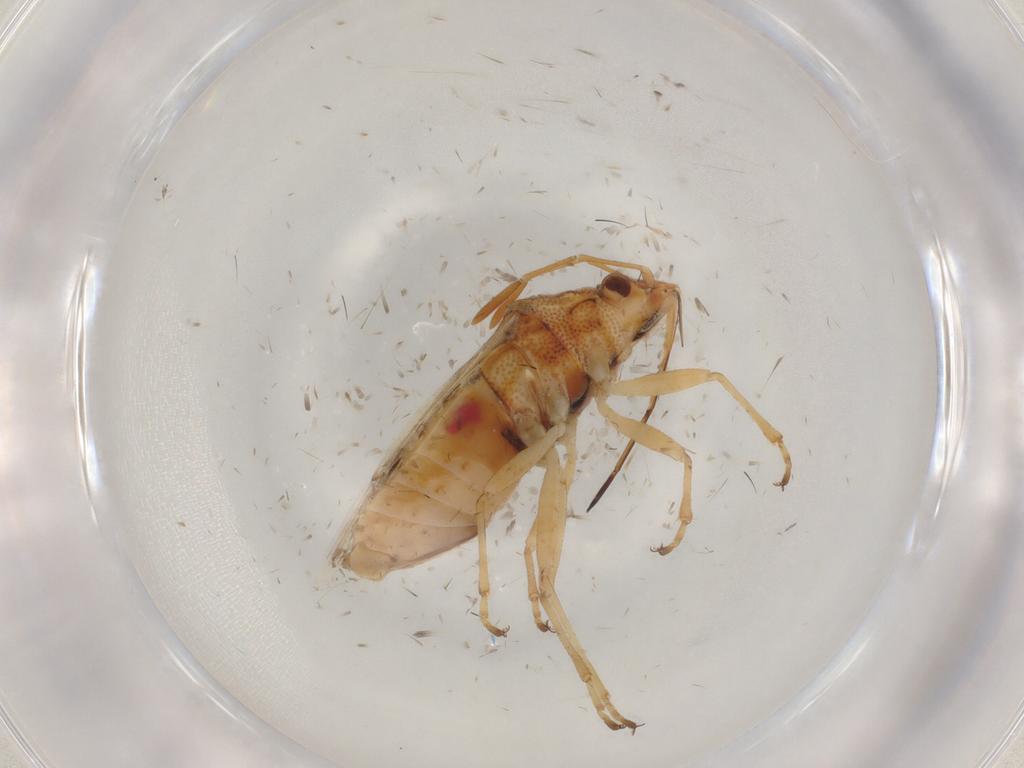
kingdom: Animalia
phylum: Arthropoda
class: Insecta
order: Hemiptera
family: Lygaeidae
